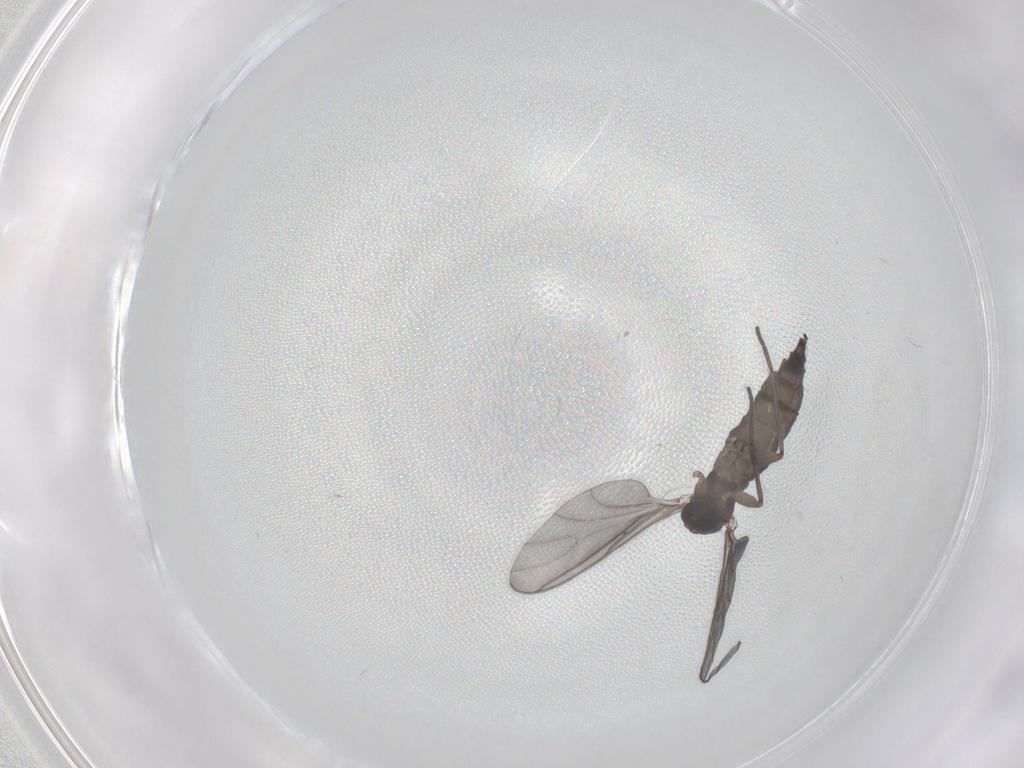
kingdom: Animalia
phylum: Arthropoda
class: Insecta
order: Diptera
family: Sciaridae
